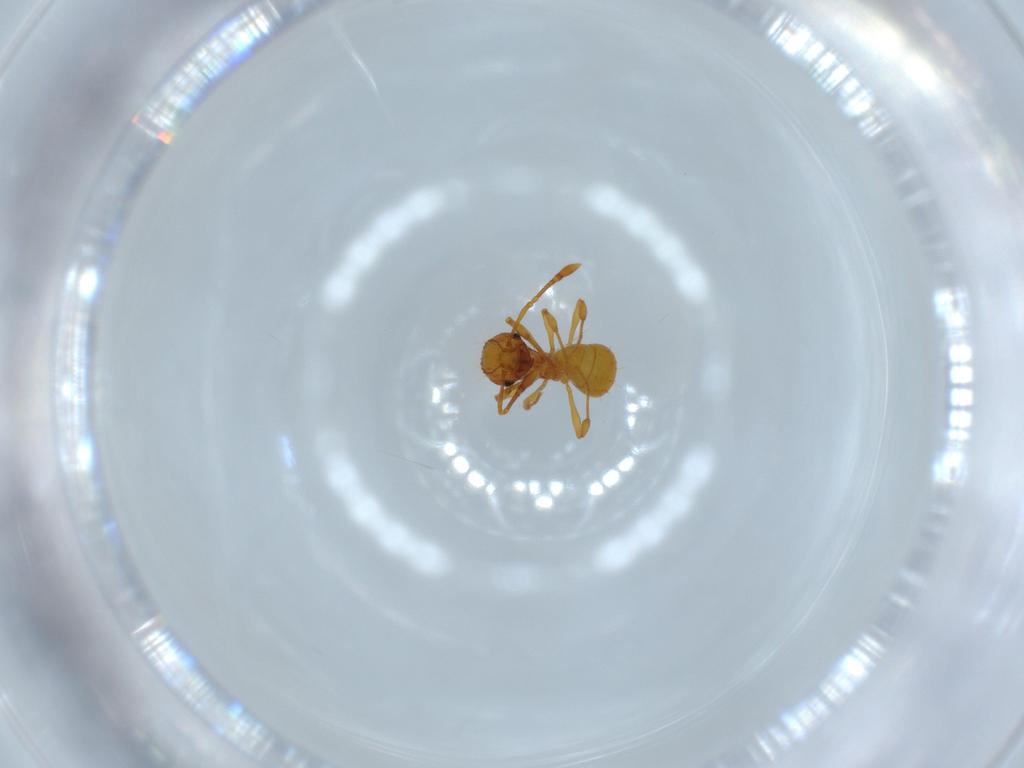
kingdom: Animalia
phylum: Arthropoda
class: Insecta
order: Hymenoptera
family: Formicidae
